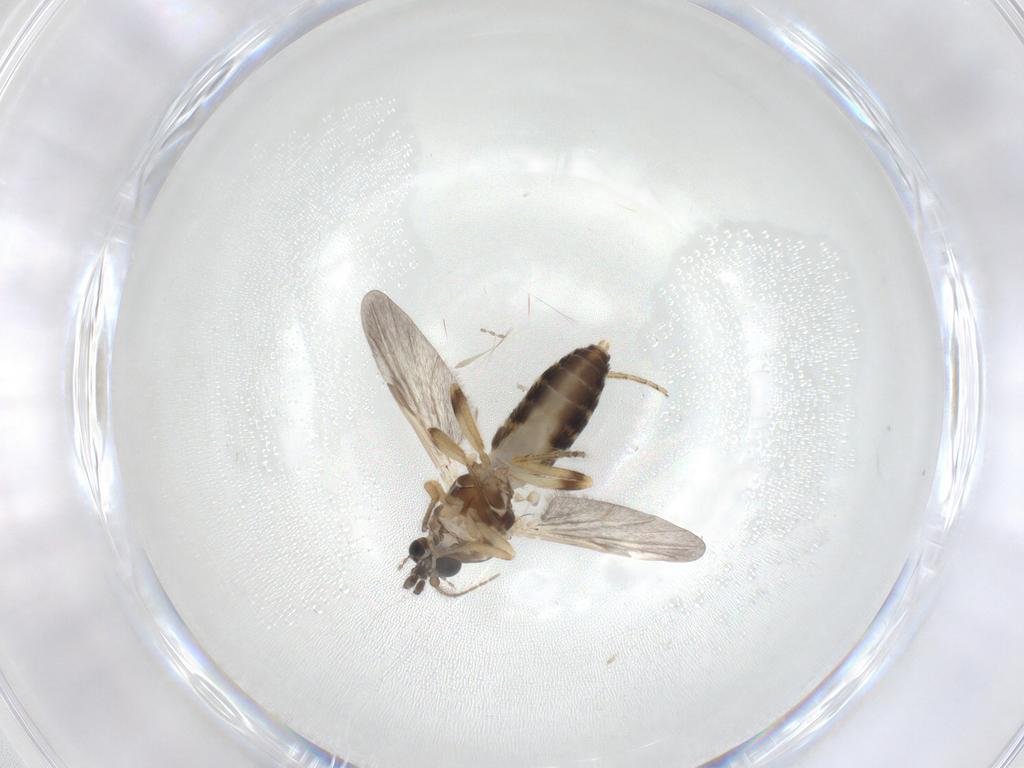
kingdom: Animalia
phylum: Arthropoda
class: Insecta
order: Diptera
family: Ceratopogonidae
